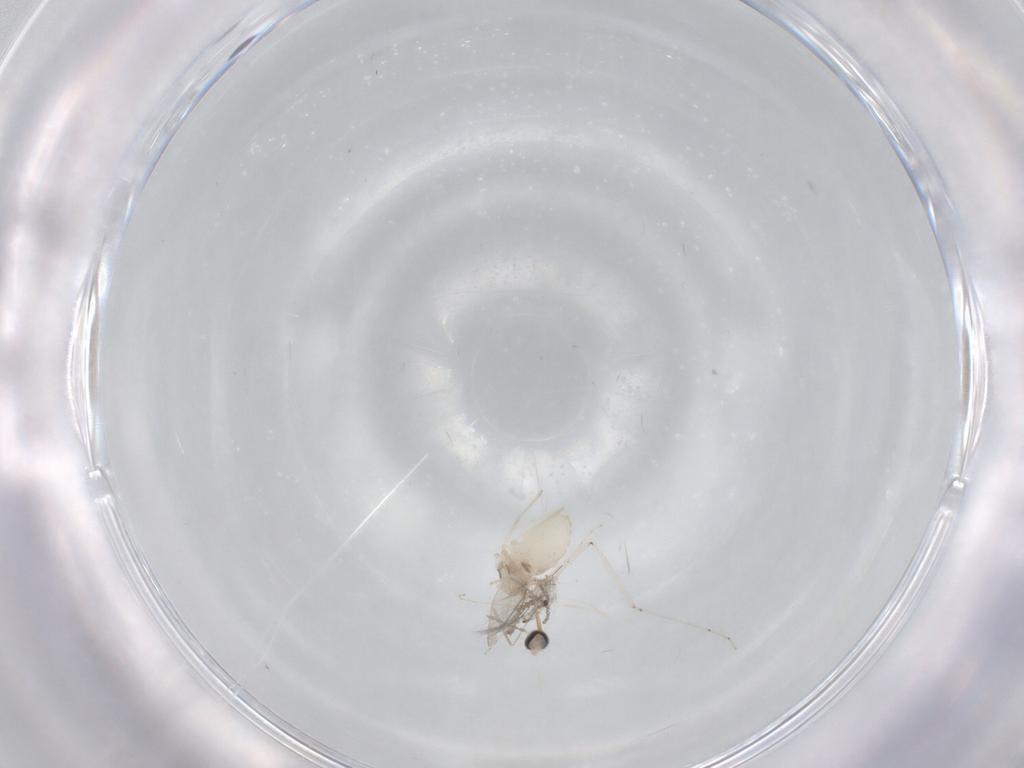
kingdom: Animalia
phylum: Arthropoda
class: Insecta
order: Diptera
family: Cecidomyiidae
